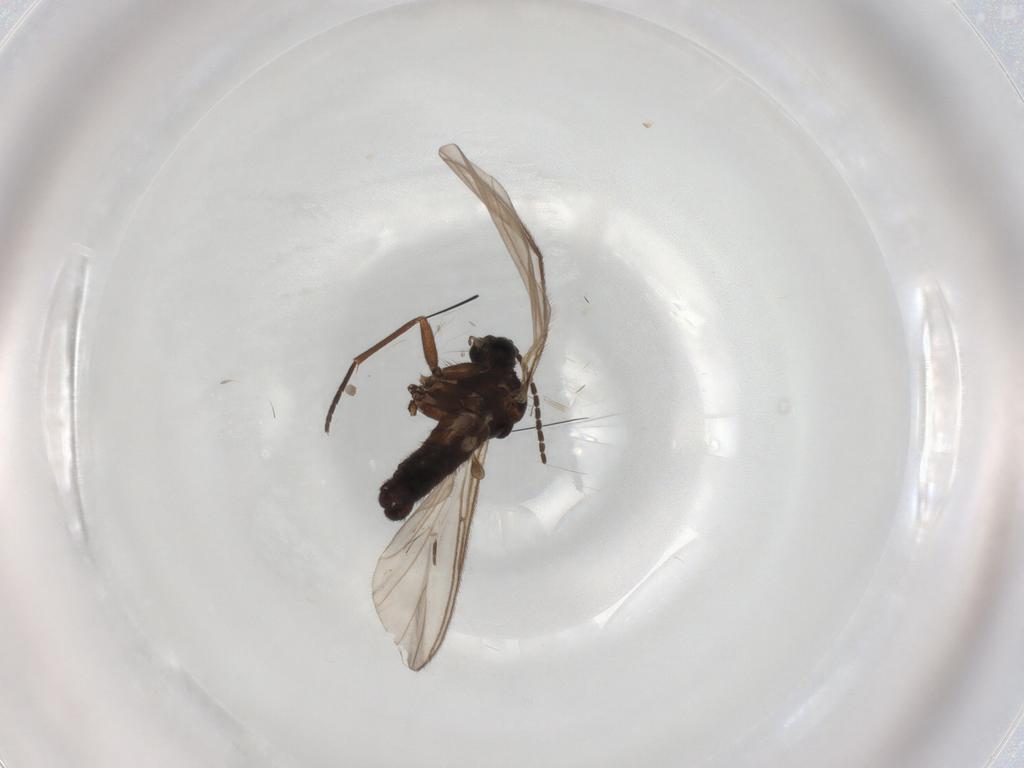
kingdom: Animalia
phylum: Arthropoda
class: Insecta
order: Diptera
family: Sciaridae
